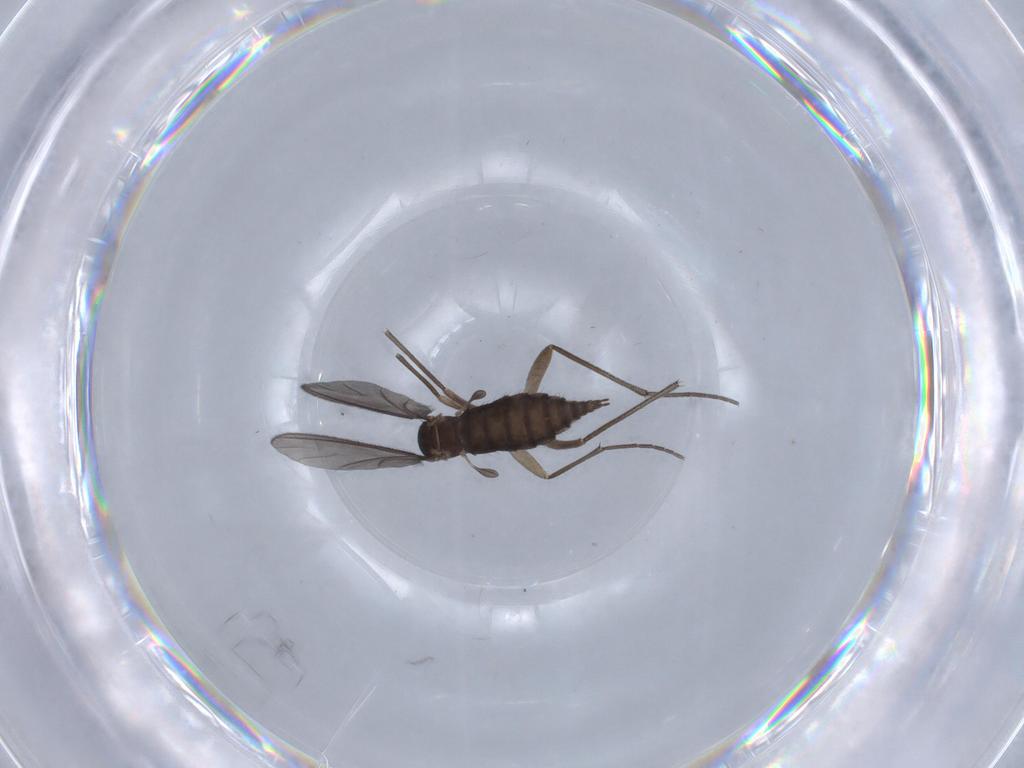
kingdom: Animalia
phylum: Arthropoda
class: Insecta
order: Diptera
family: Sciaridae
